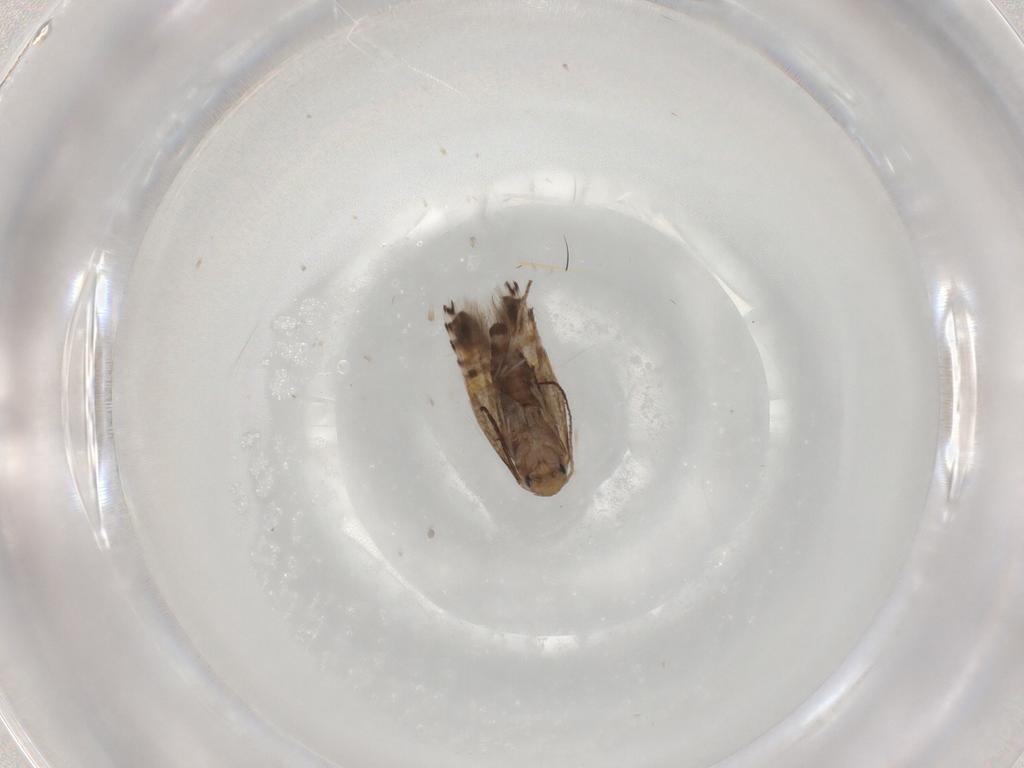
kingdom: Animalia
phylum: Arthropoda
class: Insecta
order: Lepidoptera
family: Lyonetiidae
